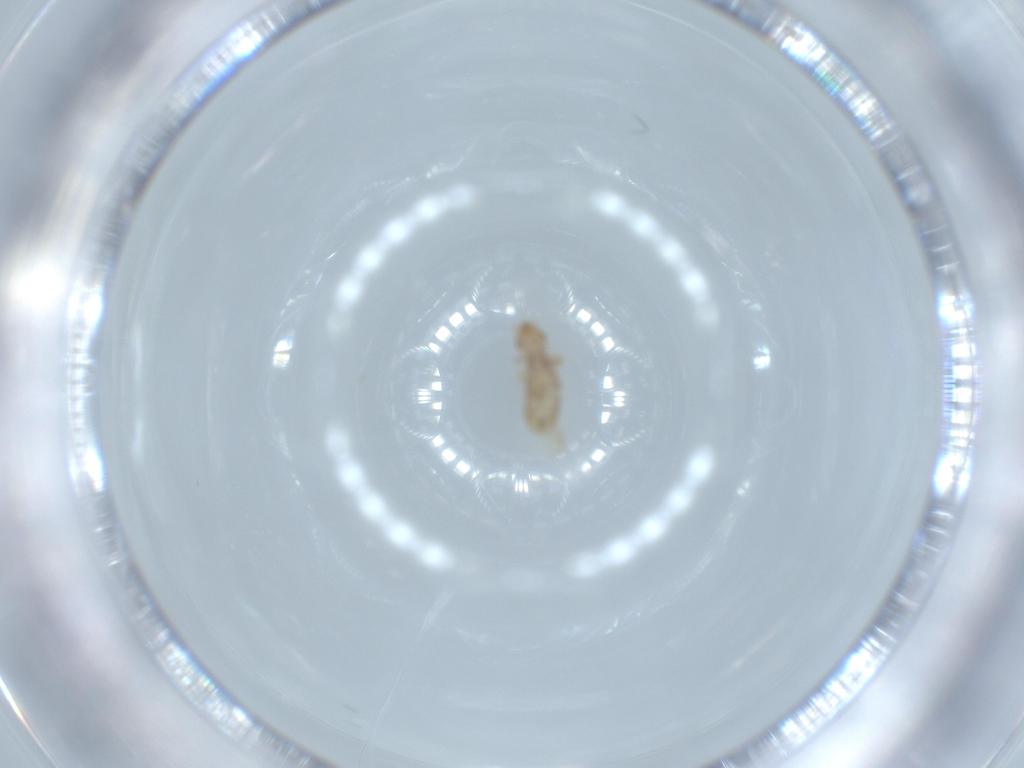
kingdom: Animalia
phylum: Arthropoda
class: Insecta
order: Psocodea
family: Liposcelididae
